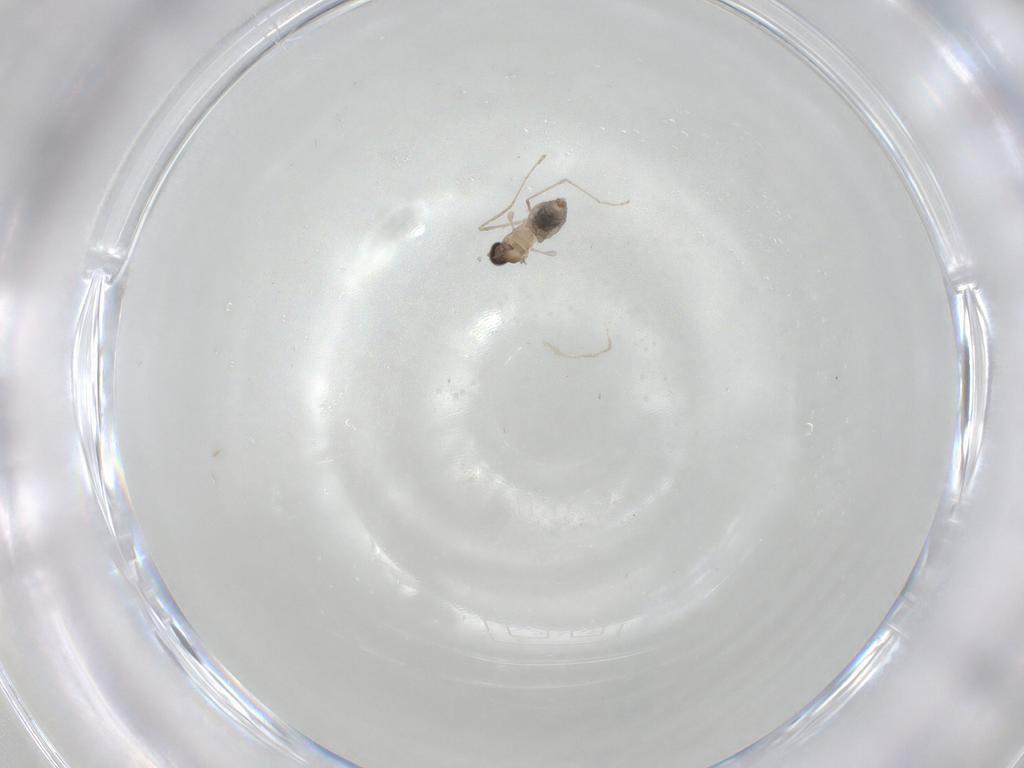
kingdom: Animalia
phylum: Arthropoda
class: Insecta
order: Diptera
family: Cecidomyiidae
